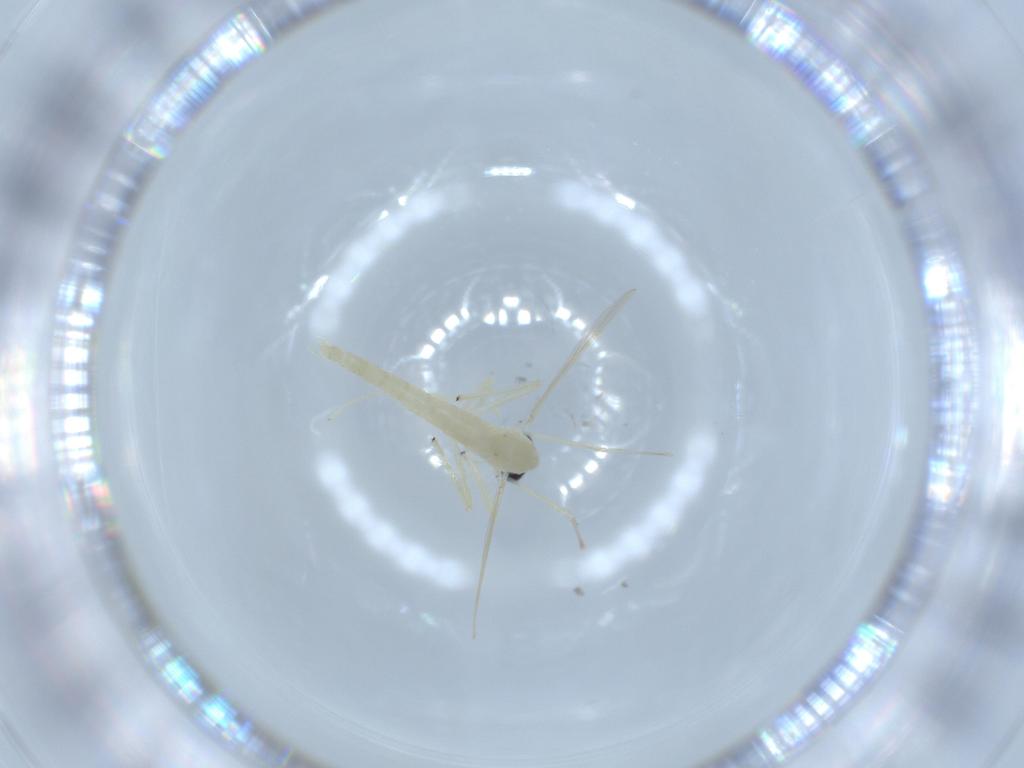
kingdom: Animalia
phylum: Arthropoda
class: Insecta
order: Diptera
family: Chironomidae
